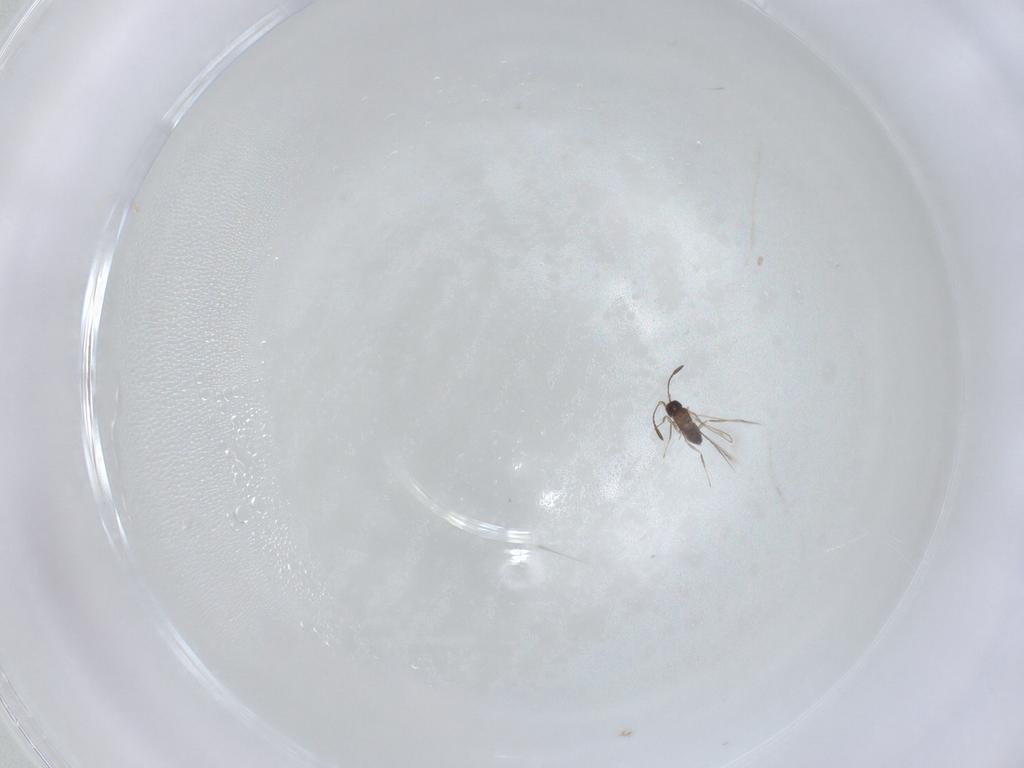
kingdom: Animalia
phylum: Arthropoda
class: Insecta
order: Hymenoptera
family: Mymaridae
